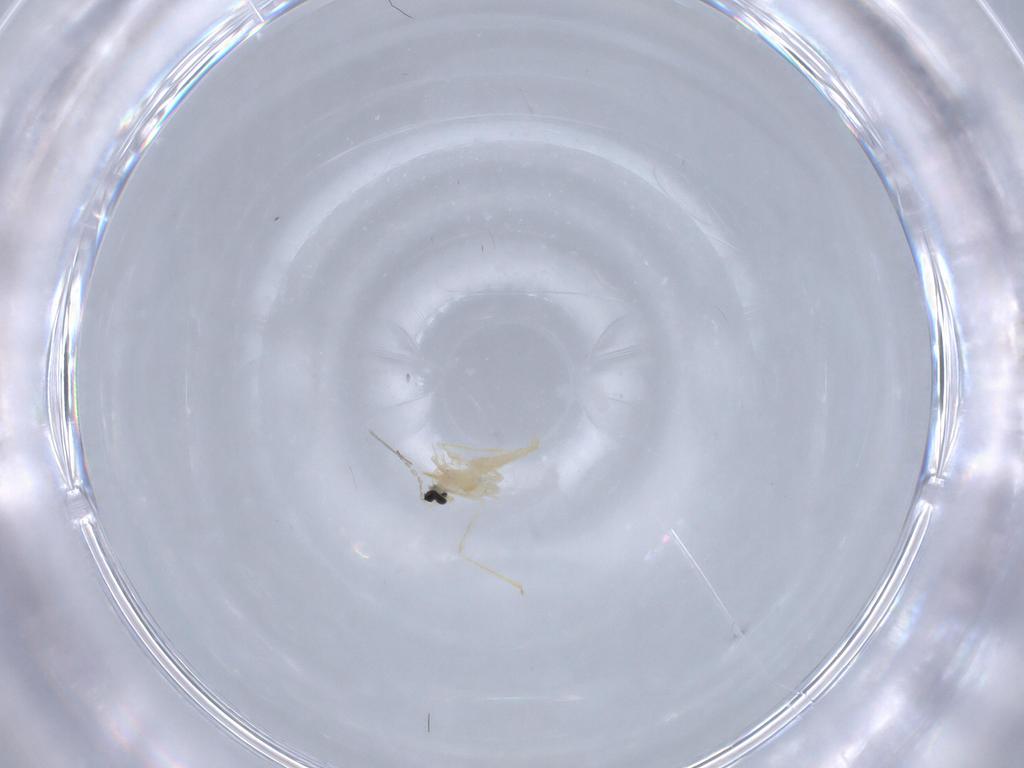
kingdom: Animalia
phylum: Arthropoda
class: Insecta
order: Diptera
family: Cecidomyiidae
